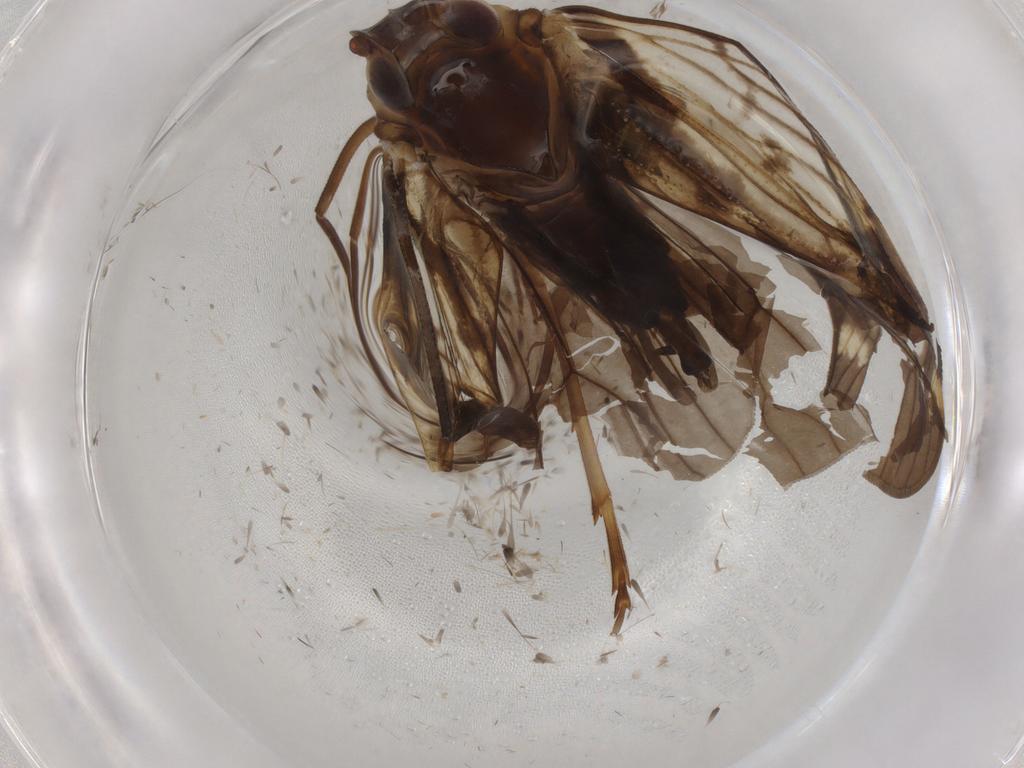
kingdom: Animalia
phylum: Arthropoda
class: Insecta
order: Hemiptera
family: Cixiidae
